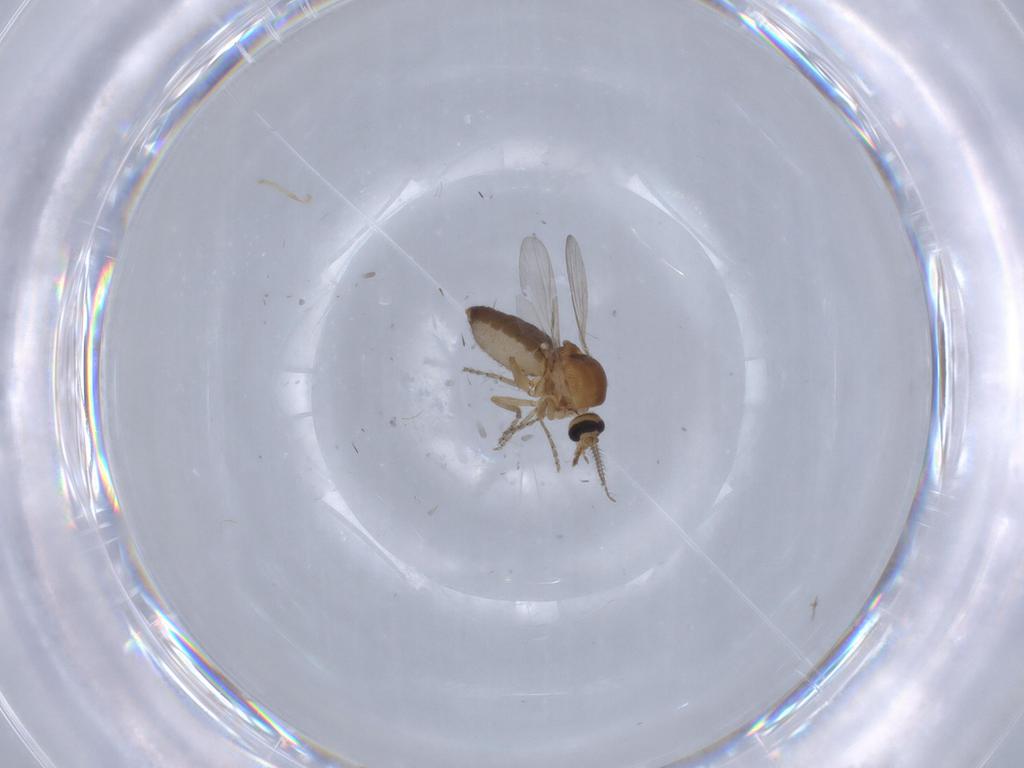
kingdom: Animalia
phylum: Arthropoda
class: Insecta
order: Diptera
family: Ceratopogonidae
